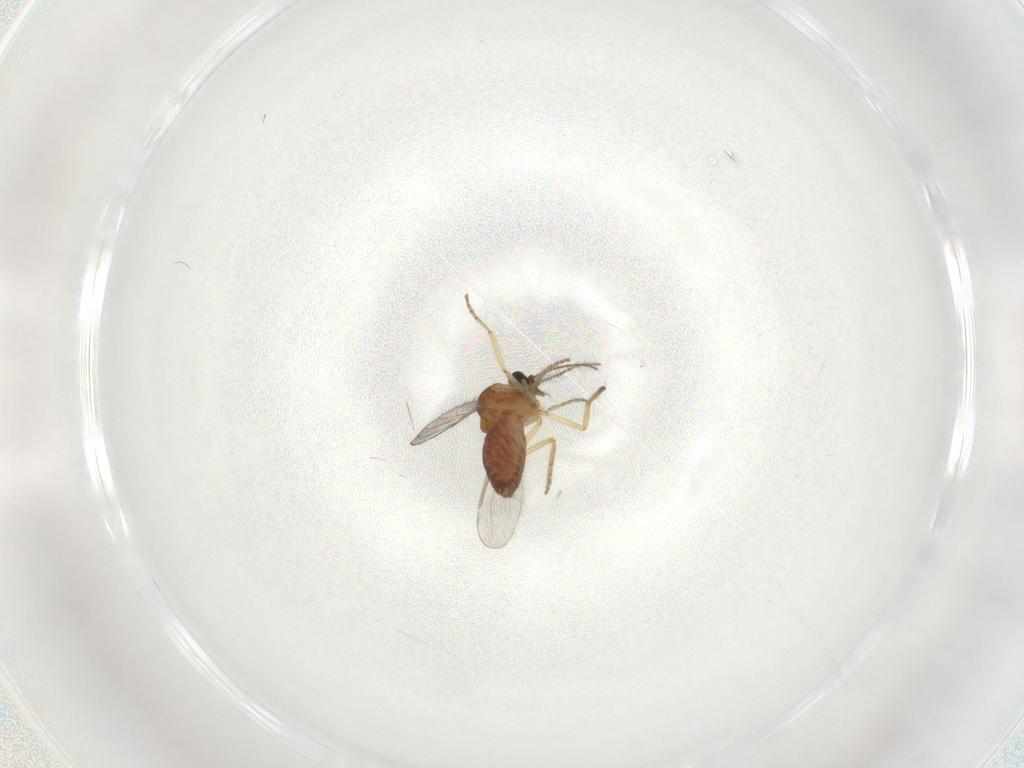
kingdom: Animalia
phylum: Arthropoda
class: Insecta
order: Diptera
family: Ceratopogonidae
